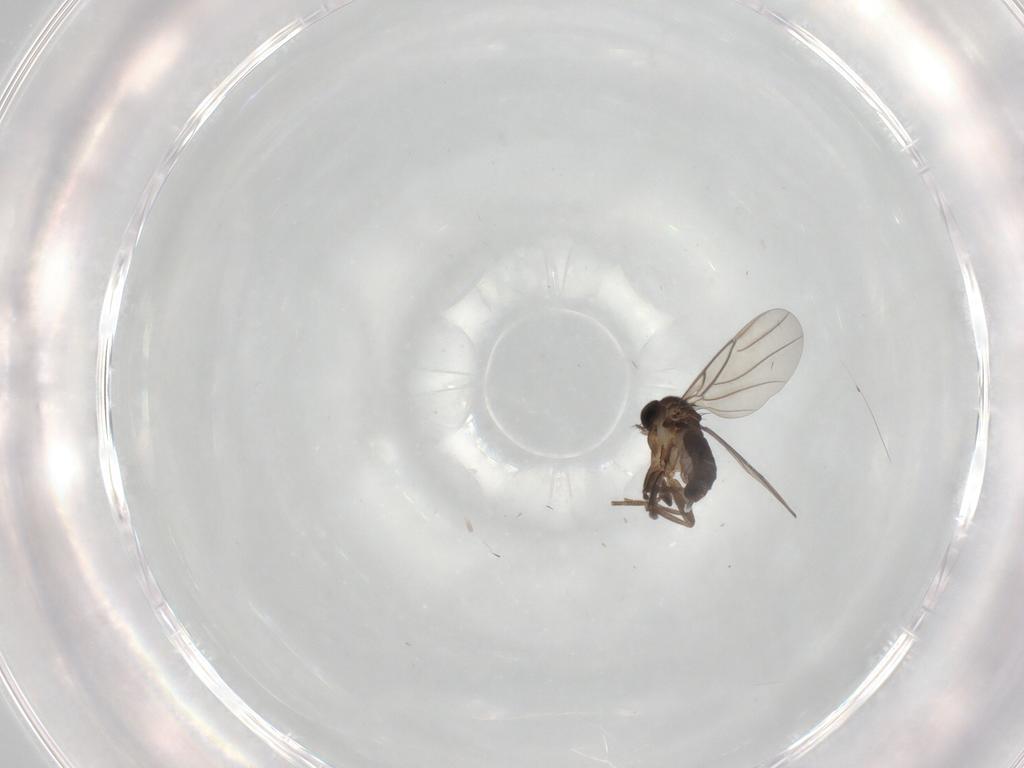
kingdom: Animalia
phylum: Arthropoda
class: Insecta
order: Diptera
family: Phoridae
